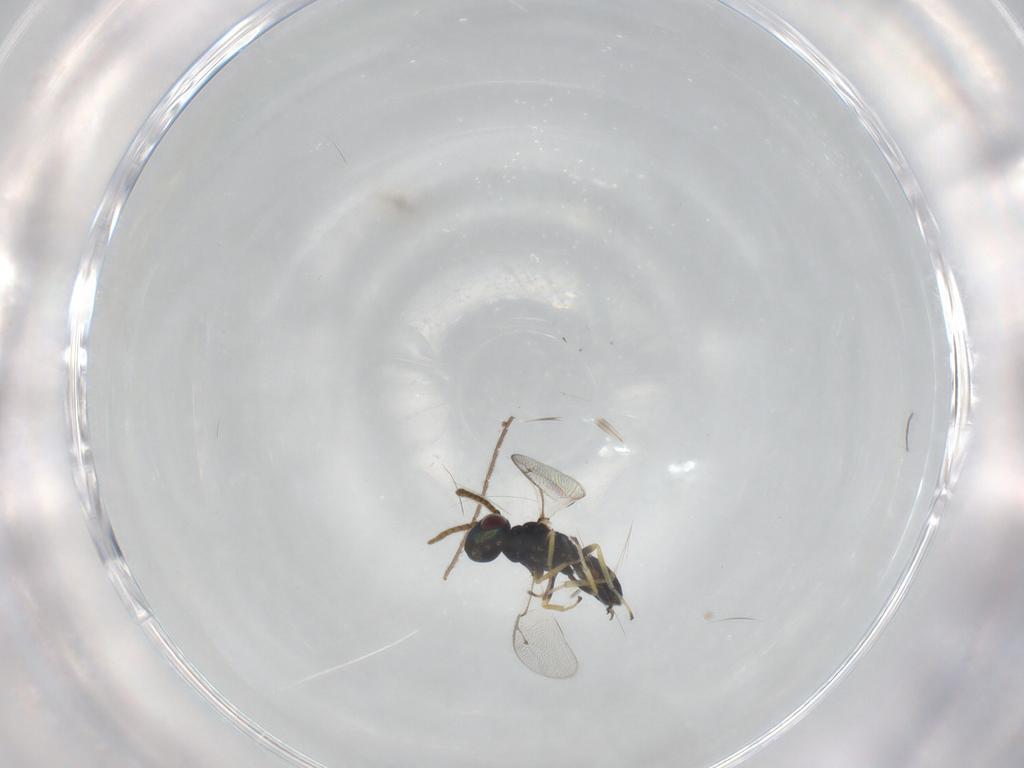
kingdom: Animalia
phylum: Arthropoda
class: Insecta
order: Hymenoptera
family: Pteromalidae
